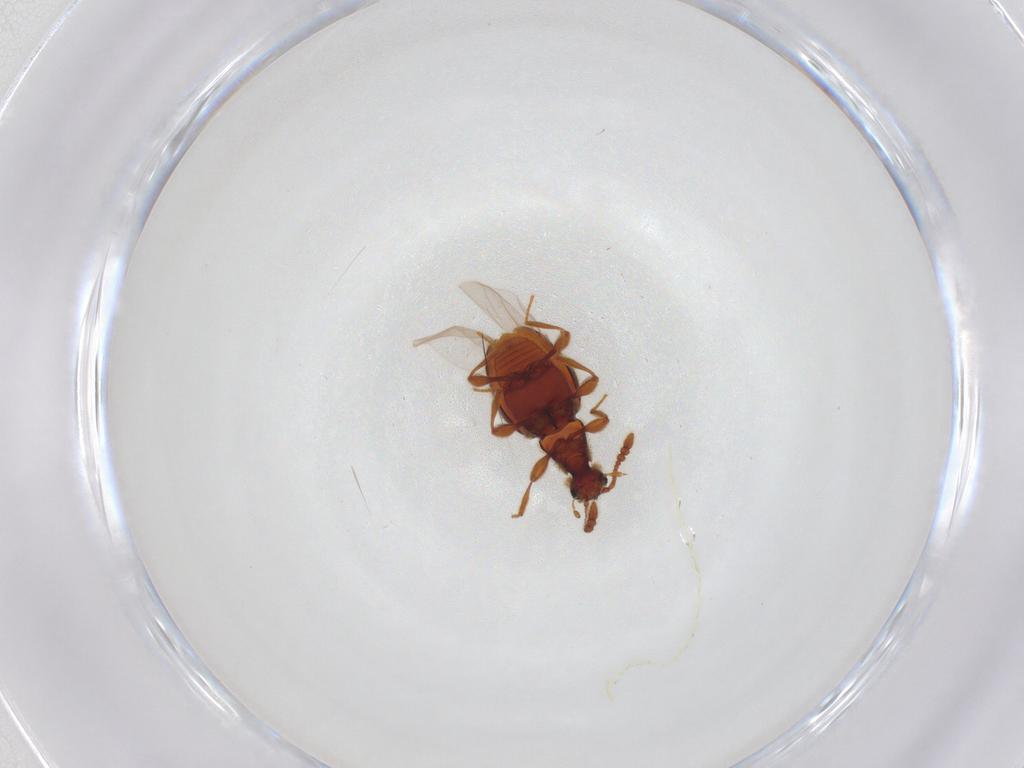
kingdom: Animalia
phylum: Arthropoda
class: Insecta
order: Coleoptera
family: Staphylinidae
